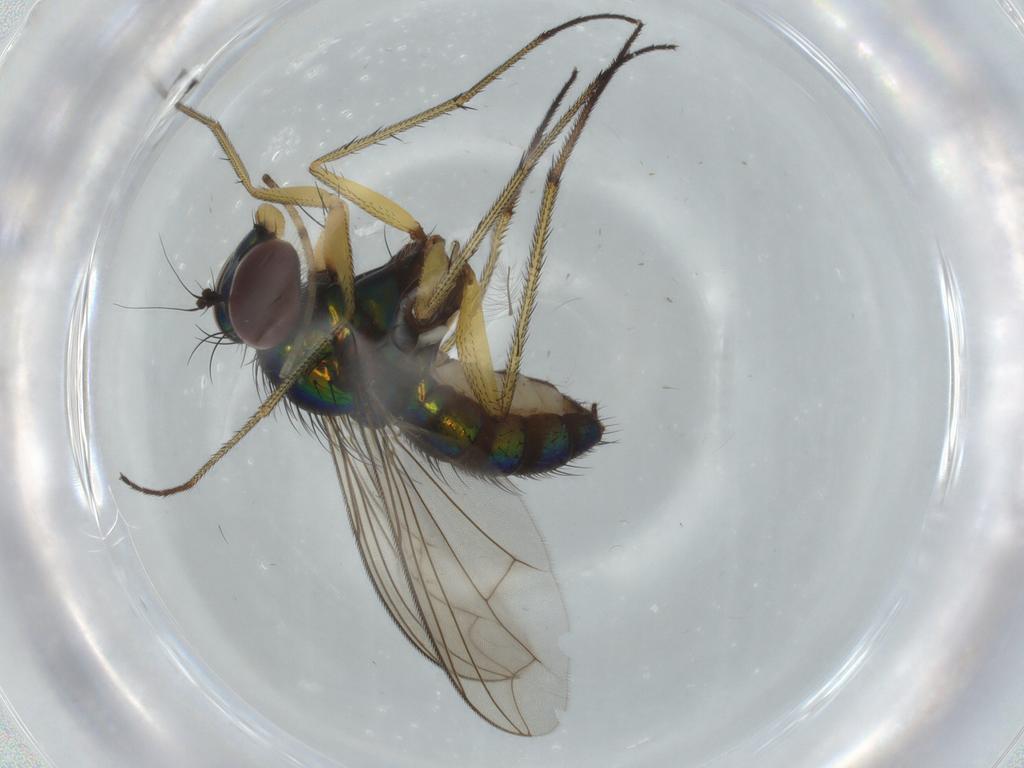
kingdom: Animalia
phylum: Arthropoda
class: Insecta
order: Diptera
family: Dolichopodidae
